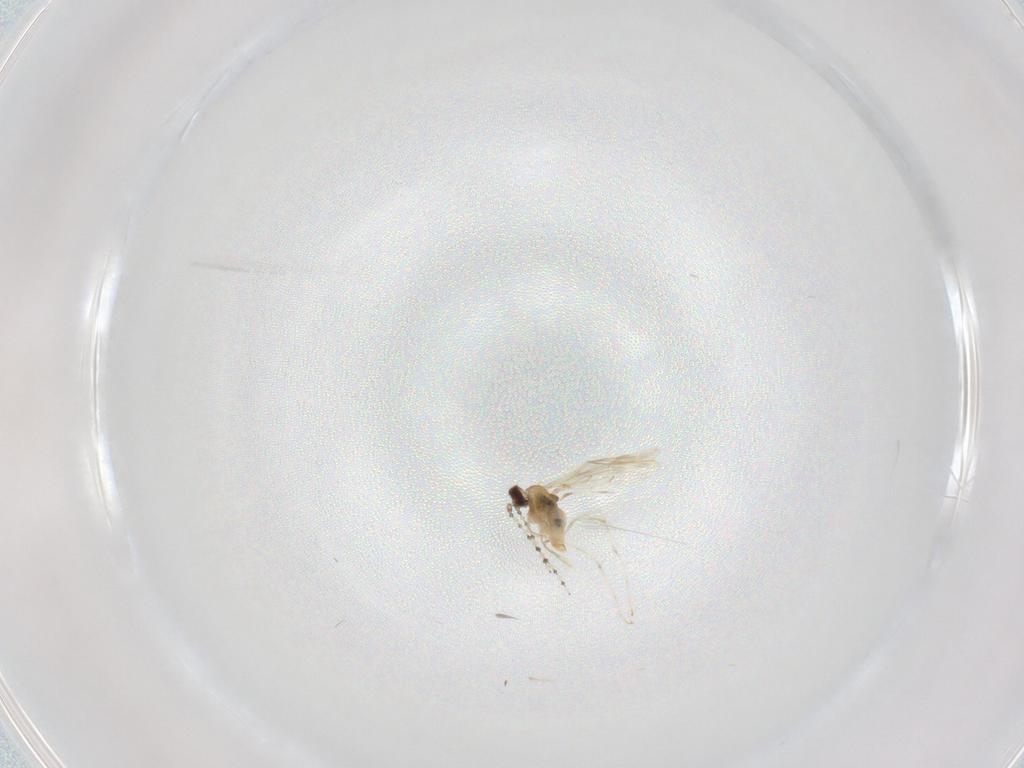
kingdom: Animalia
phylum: Arthropoda
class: Insecta
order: Diptera
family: Cecidomyiidae
